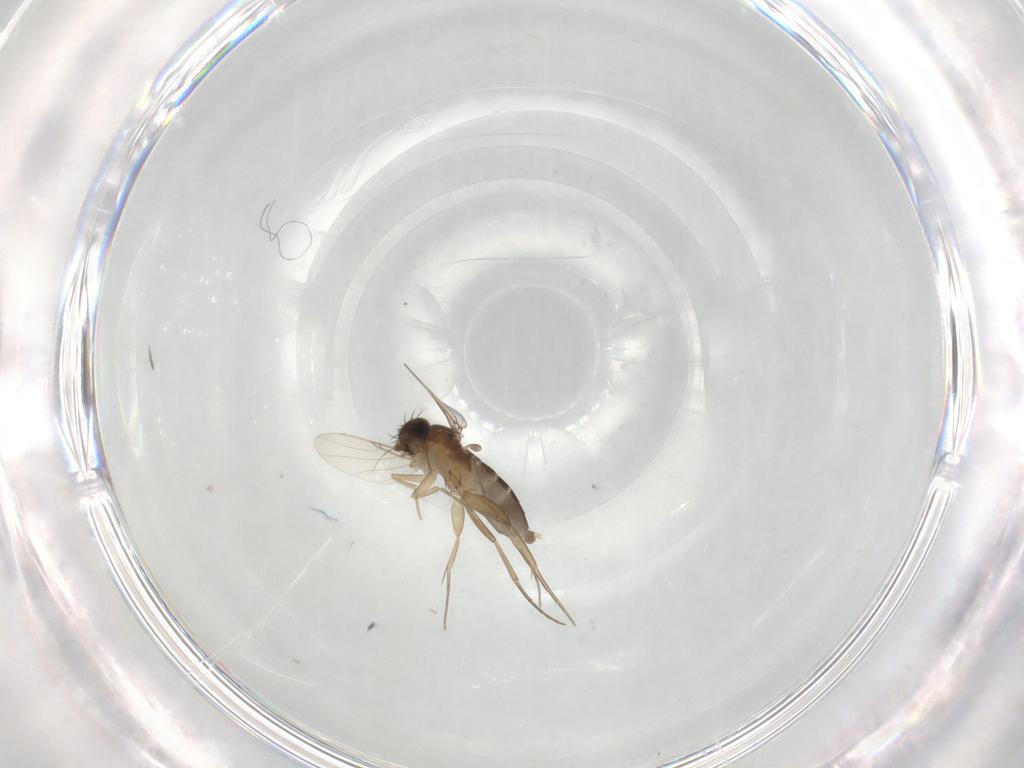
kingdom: Animalia
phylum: Arthropoda
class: Insecta
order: Diptera
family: Phoridae
